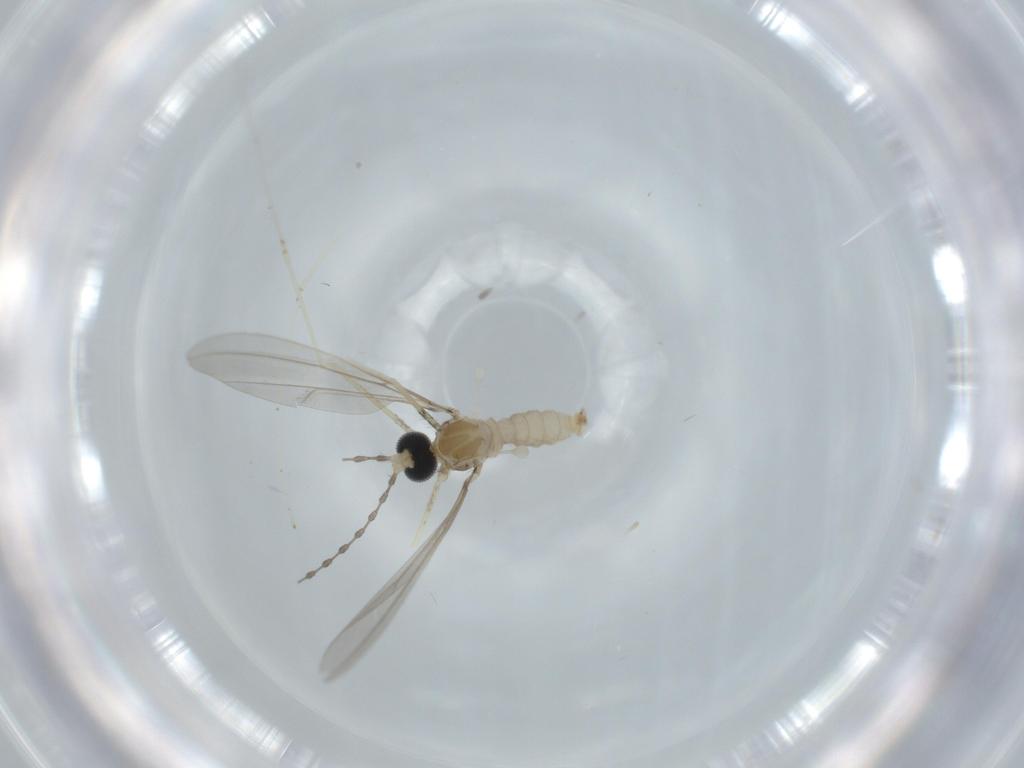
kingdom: Animalia
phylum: Arthropoda
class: Insecta
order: Diptera
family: Cecidomyiidae
